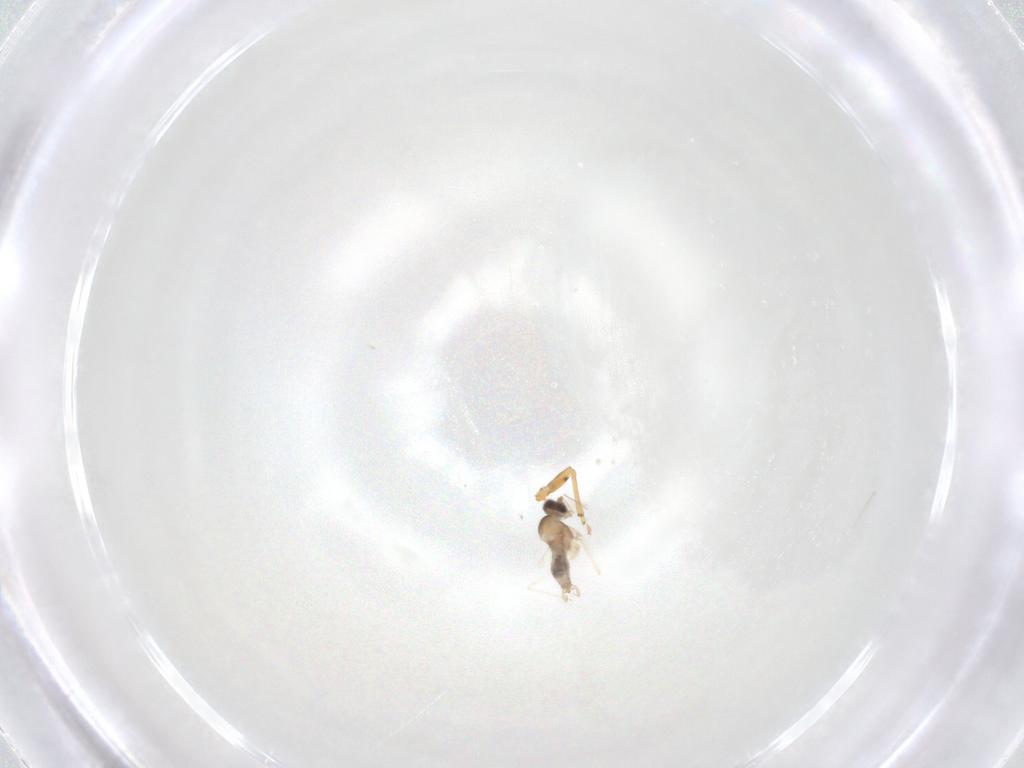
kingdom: Animalia
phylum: Arthropoda
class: Insecta
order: Diptera
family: Cecidomyiidae
